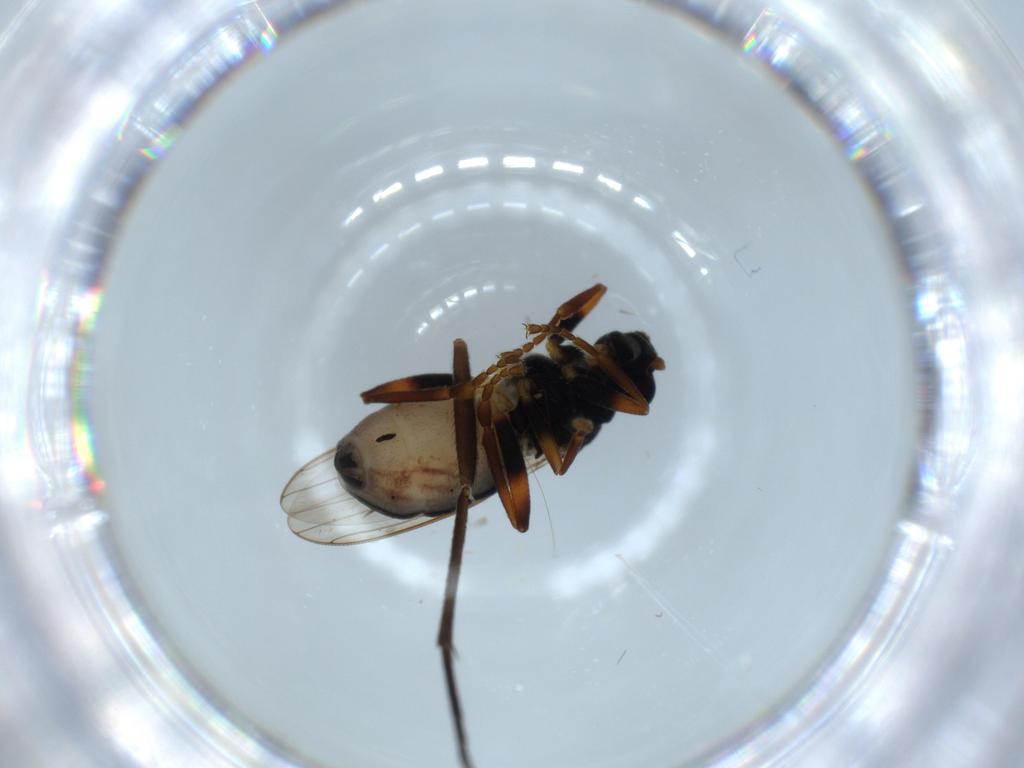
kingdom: Animalia
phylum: Arthropoda
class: Insecta
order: Diptera
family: Sciaridae
